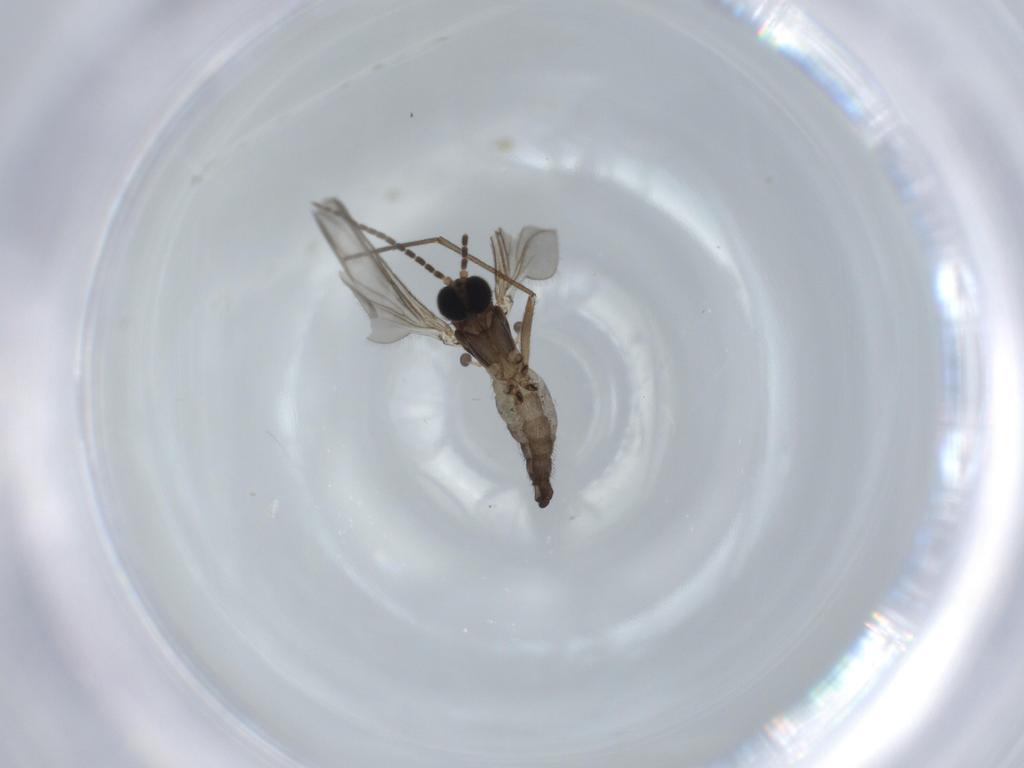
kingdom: Animalia
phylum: Arthropoda
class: Insecta
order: Diptera
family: Sciaridae
